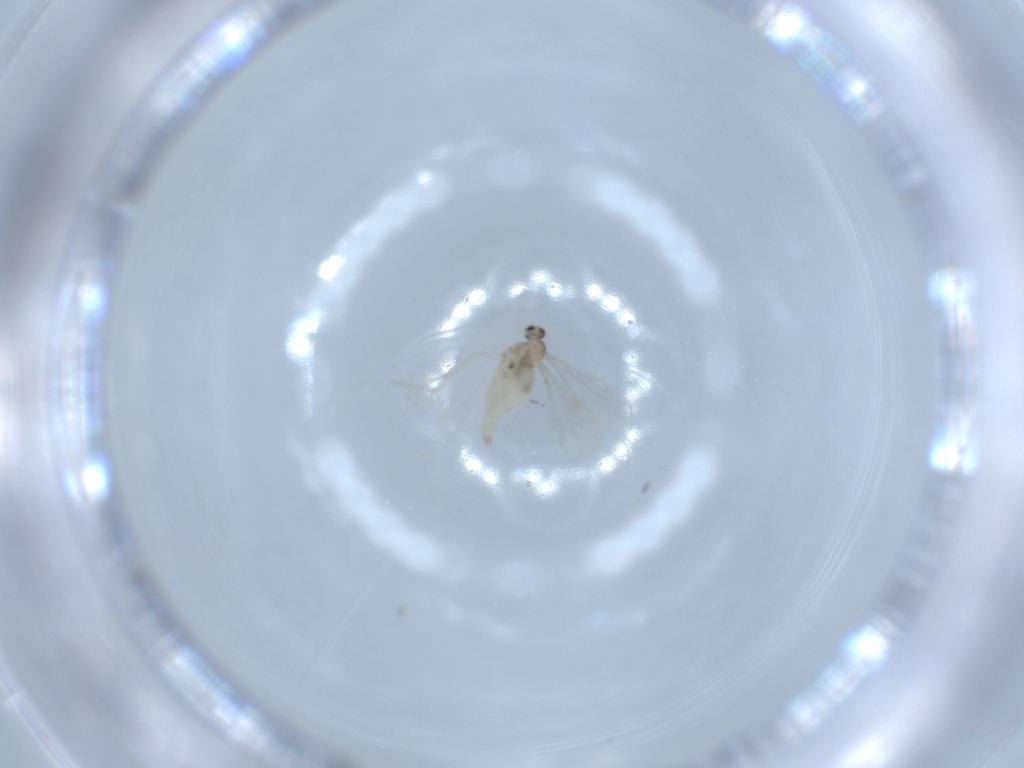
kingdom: Animalia
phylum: Arthropoda
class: Insecta
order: Diptera
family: Cecidomyiidae
